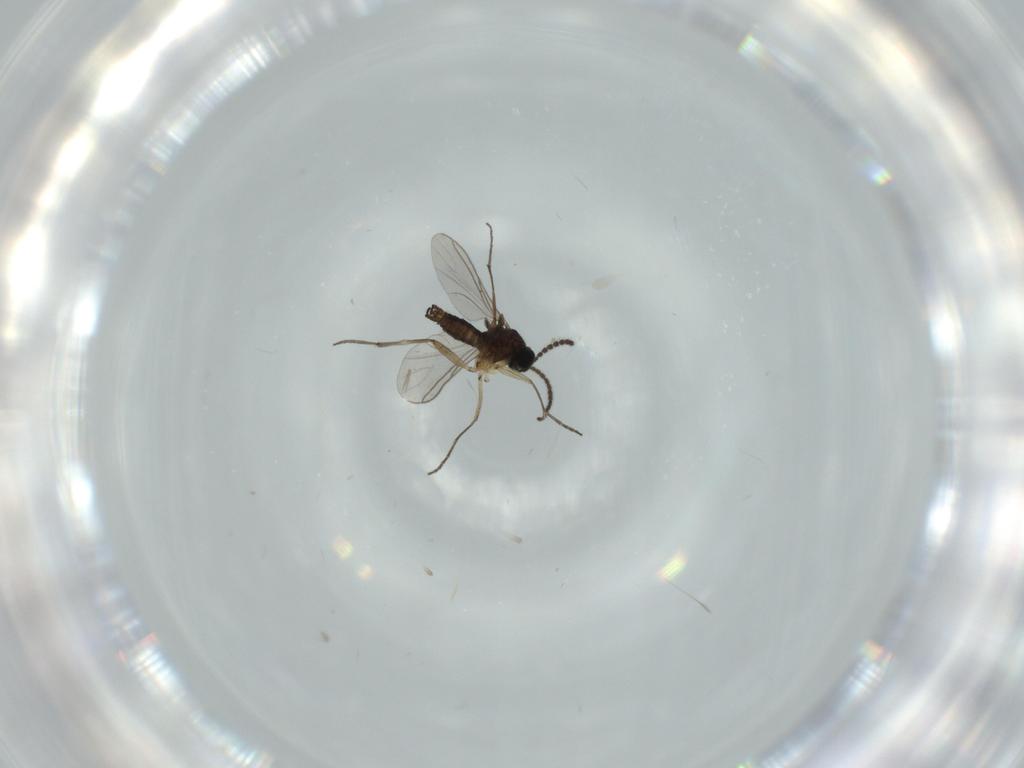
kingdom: Animalia
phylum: Arthropoda
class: Insecta
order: Diptera
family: Sciaridae
